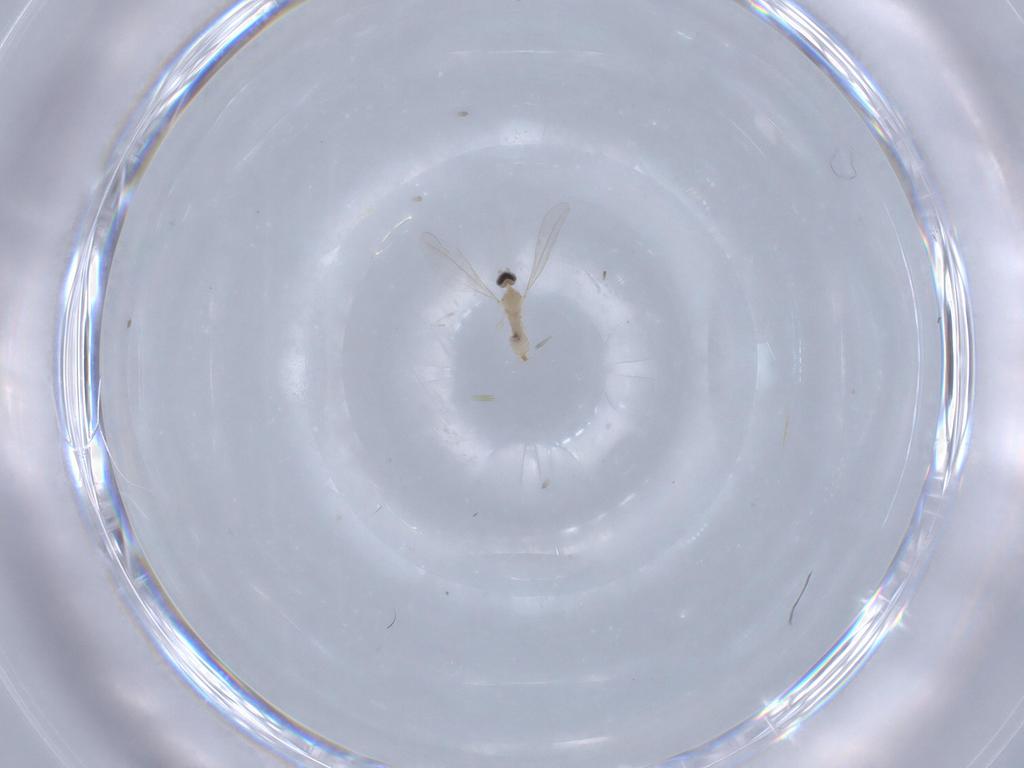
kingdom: Animalia
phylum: Arthropoda
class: Insecta
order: Diptera
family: Cecidomyiidae
